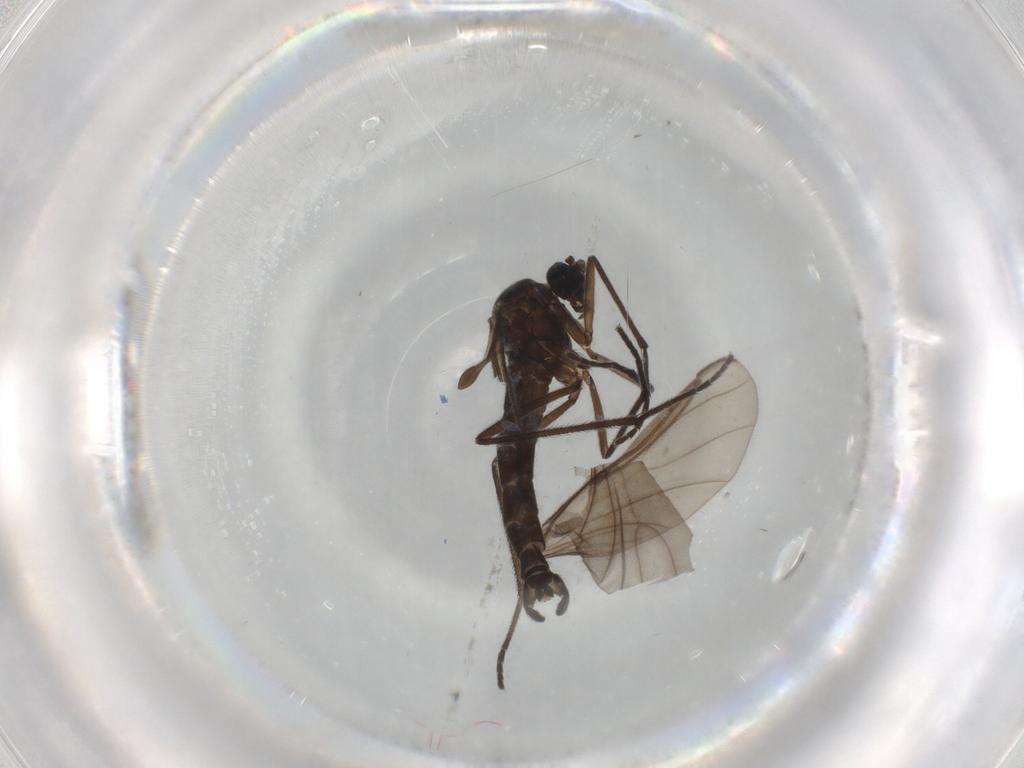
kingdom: Animalia
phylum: Arthropoda
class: Insecta
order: Diptera
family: Sciaridae
